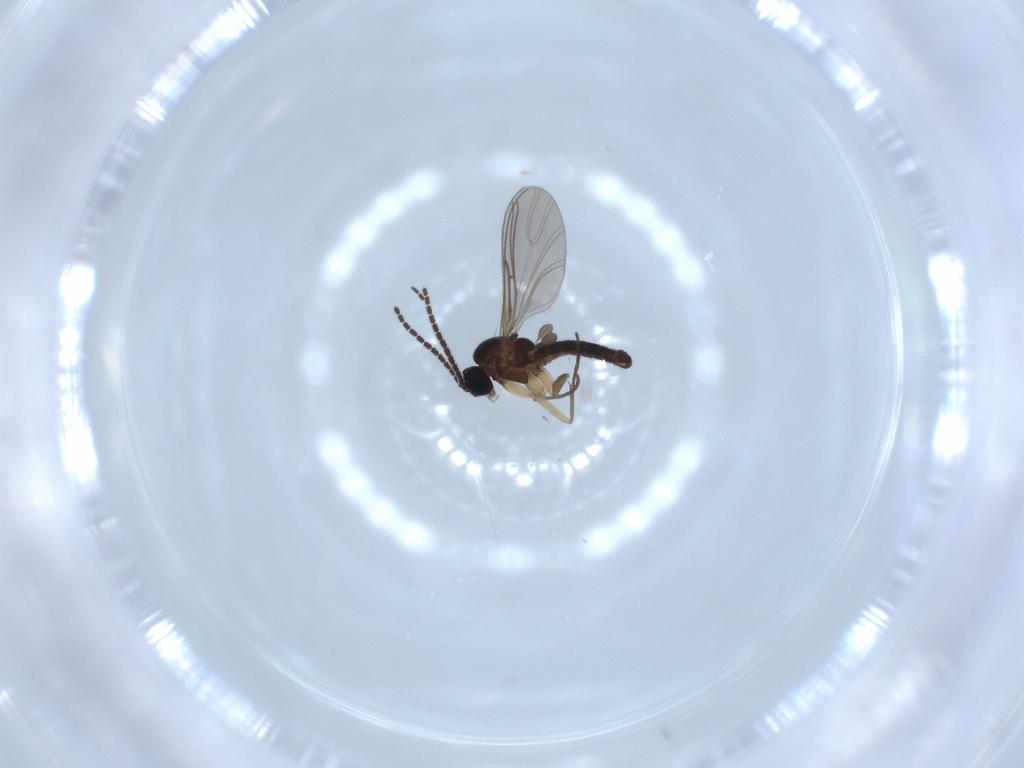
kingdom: Animalia
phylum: Arthropoda
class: Insecta
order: Diptera
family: Sciaridae
